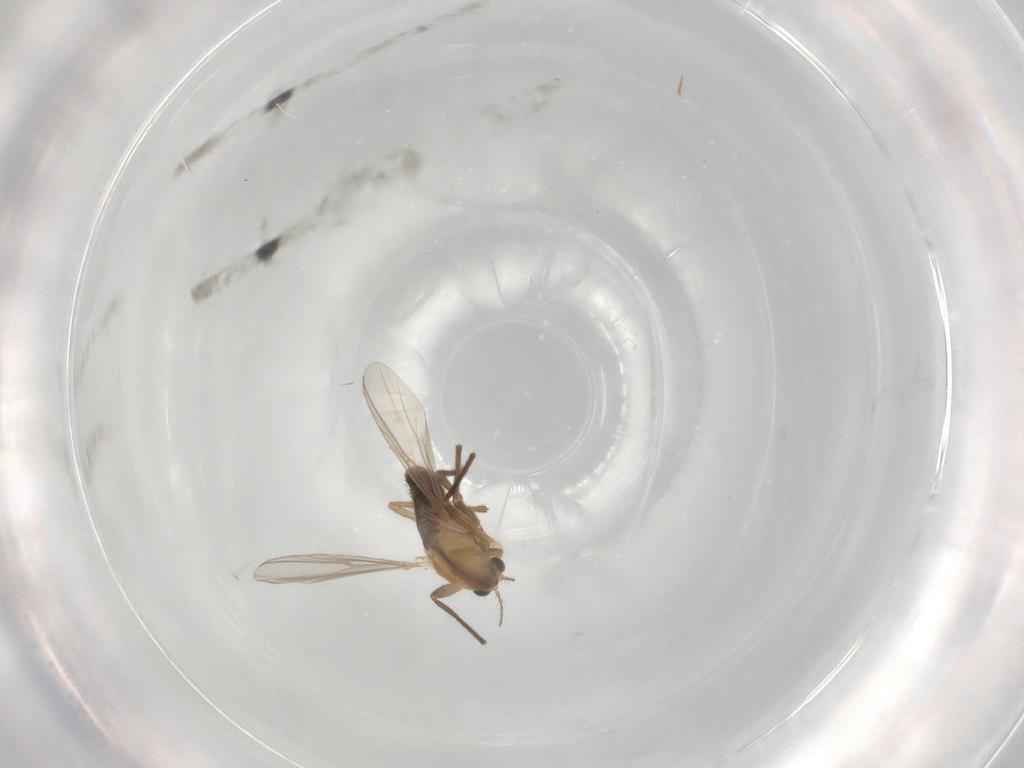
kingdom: Animalia
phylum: Arthropoda
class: Insecta
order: Diptera
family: Chironomidae
